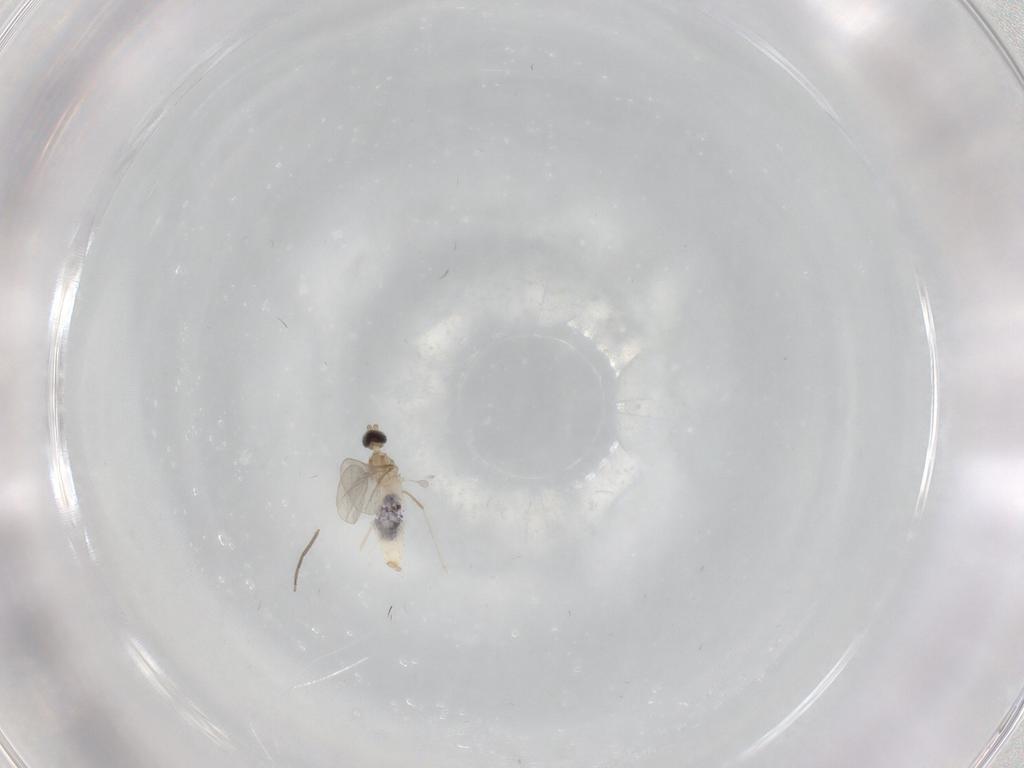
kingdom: Animalia
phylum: Arthropoda
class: Insecta
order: Diptera
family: Cecidomyiidae
